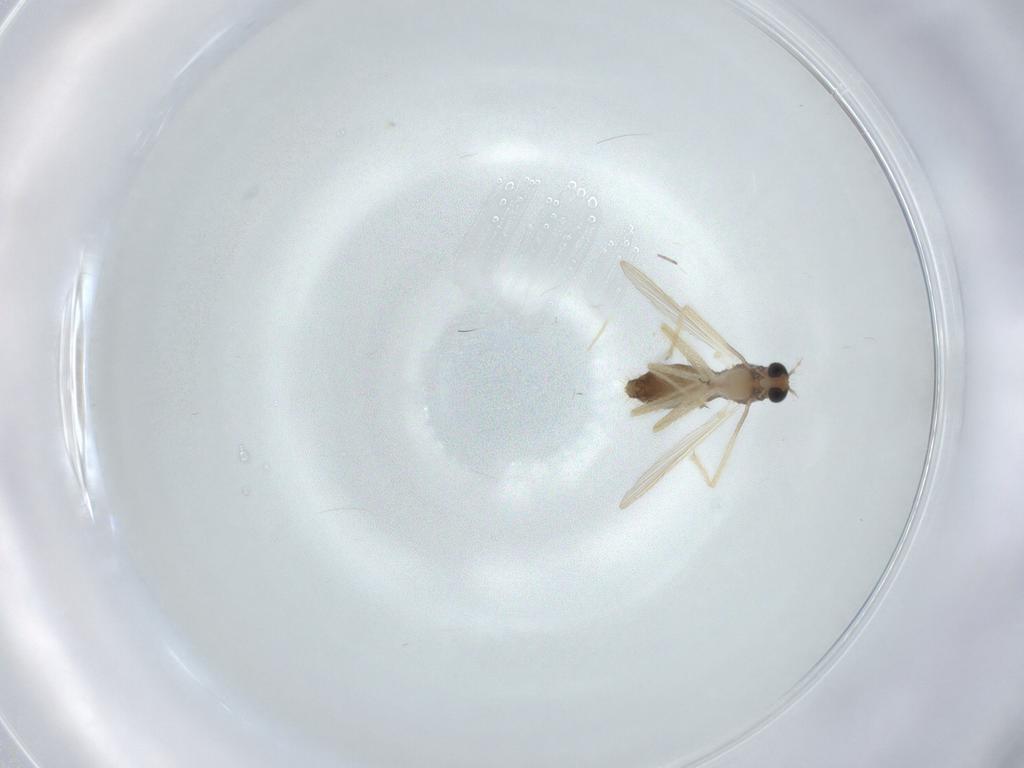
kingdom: Animalia
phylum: Arthropoda
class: Insecta
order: Diptera
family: Chironomidae
